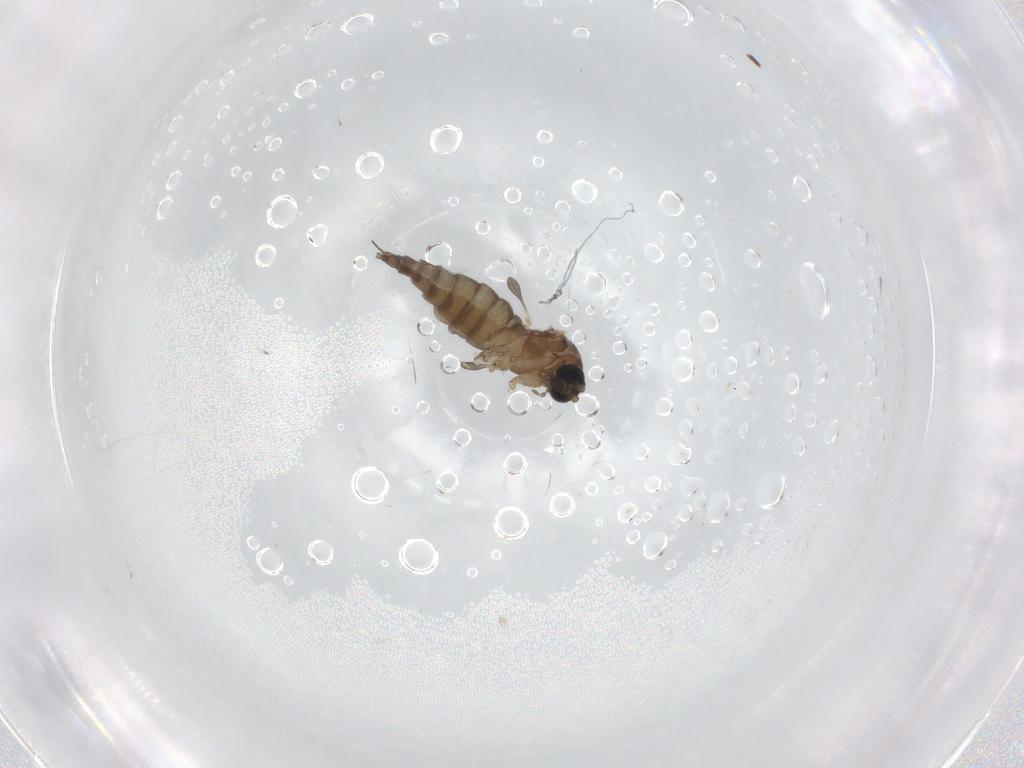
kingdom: Animalia
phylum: Arthropoda
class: Insecta
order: Diptera
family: Sciaridae
